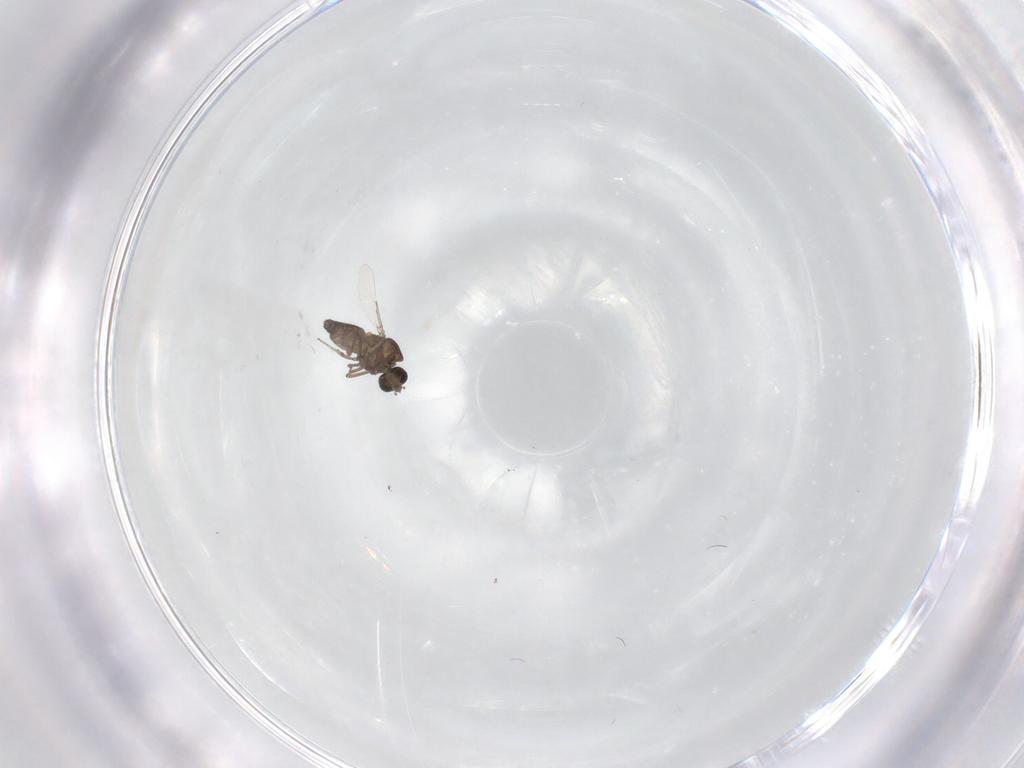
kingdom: Animalia
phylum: Arthropoda
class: Insecta
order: Diptera
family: Ceratopogonidae
